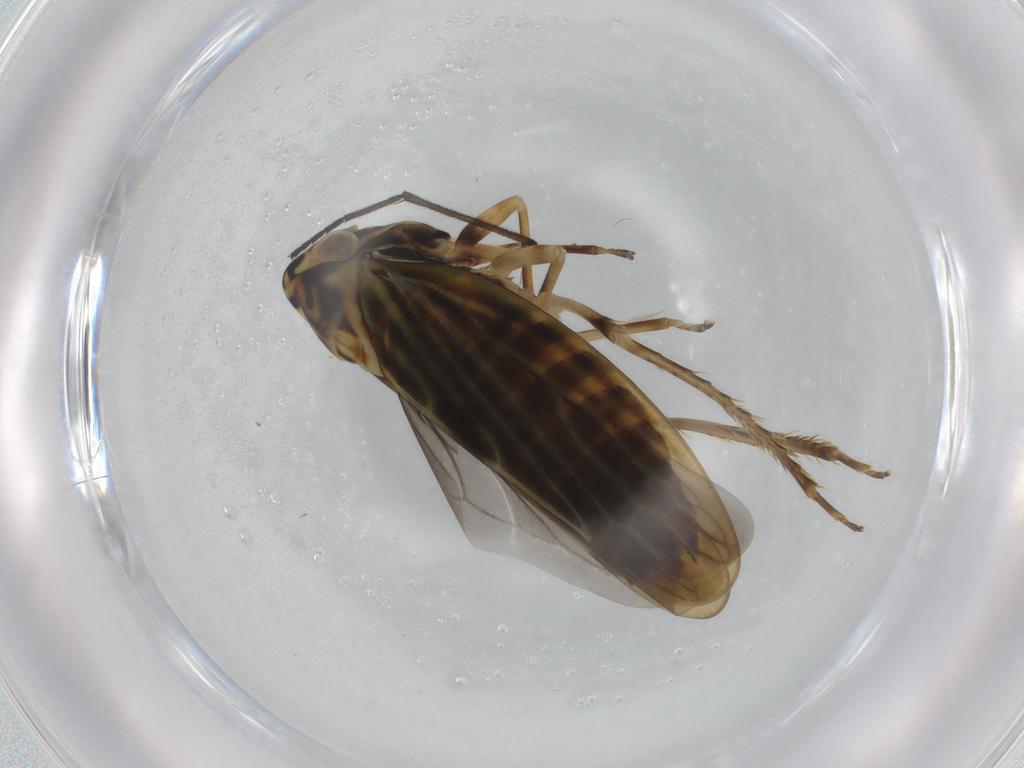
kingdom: Animalia
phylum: Arthropoda
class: Insecta
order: Hemiptera
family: Cicadellidae
